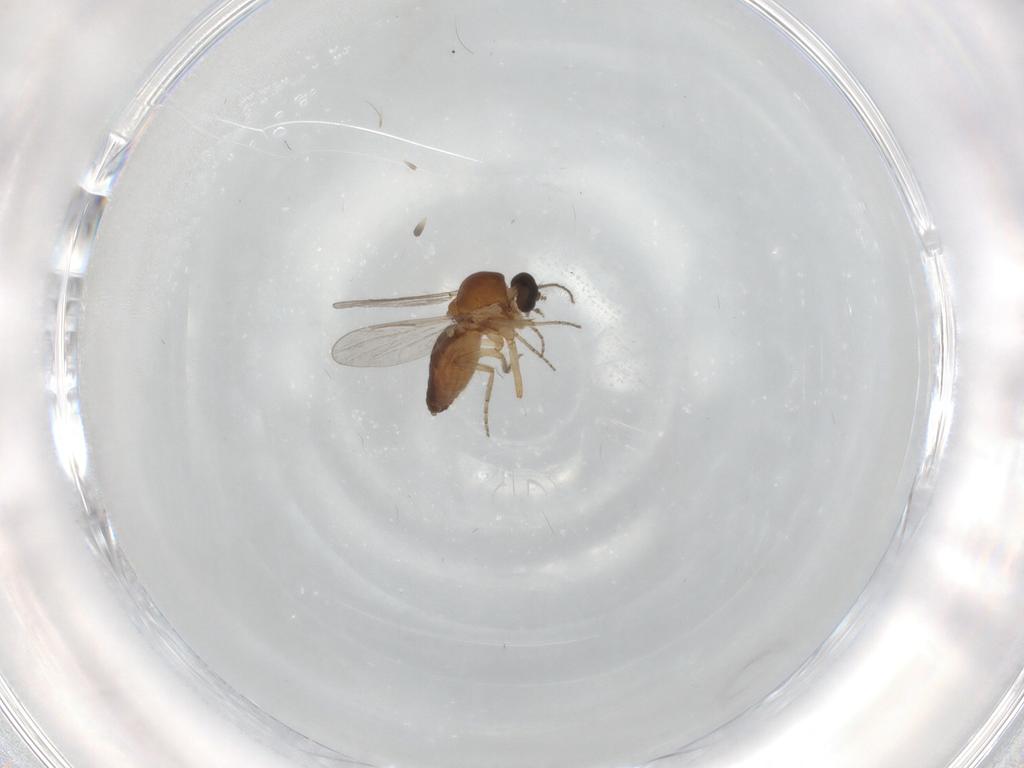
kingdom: Animalia
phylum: Arthropoda
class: Insecta
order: Diptera
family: Ceratopogonidae
